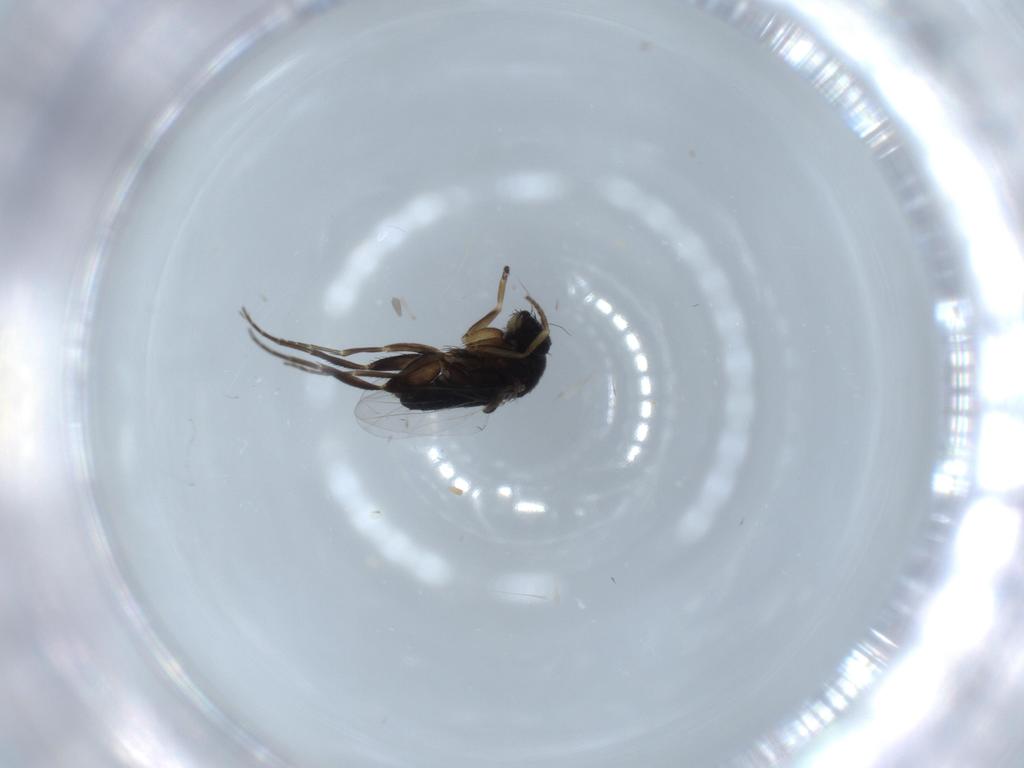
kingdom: Animalia
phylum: Arthropoda
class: Insecta
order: Diptera
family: Phoridae
